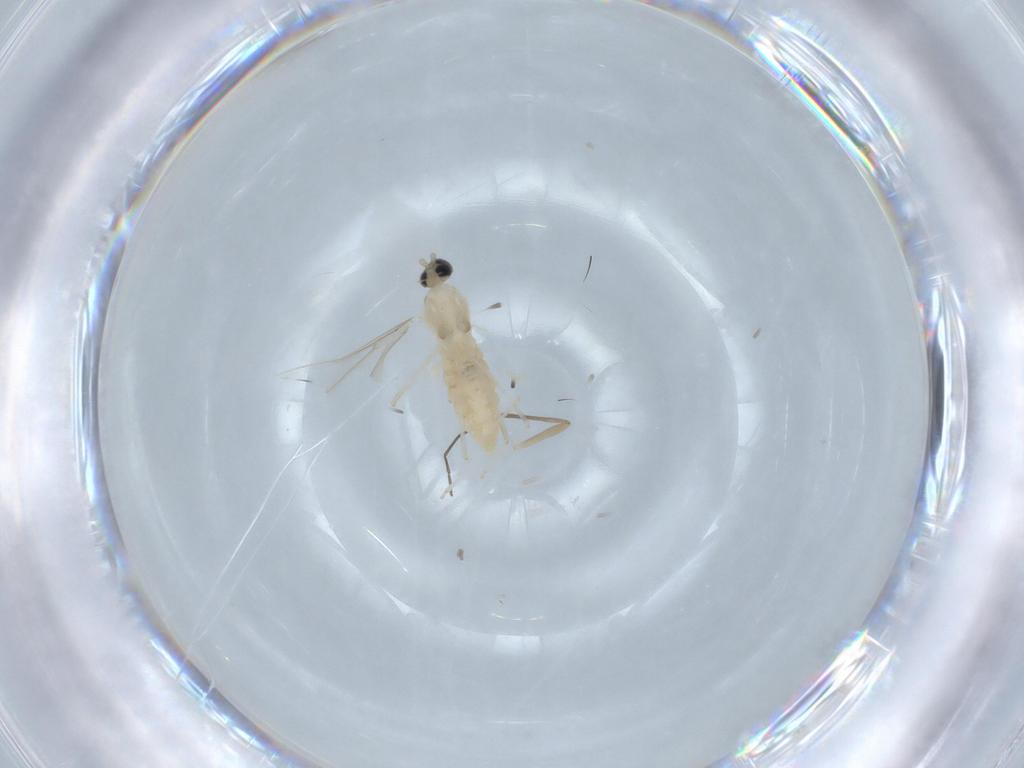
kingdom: Animalia
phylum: Arthropoda
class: Insecta
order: Diptera
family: Cecidomyiidae
